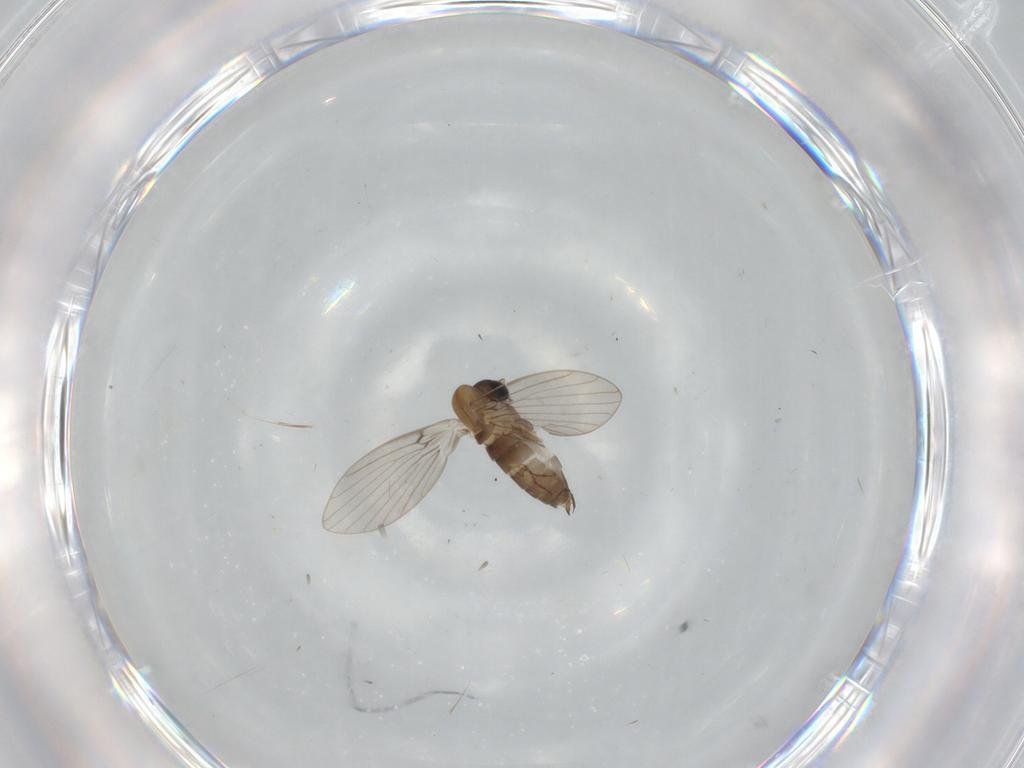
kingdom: Animalia
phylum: Arthropoda
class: Insecta
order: Diptera
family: Psychodidae
